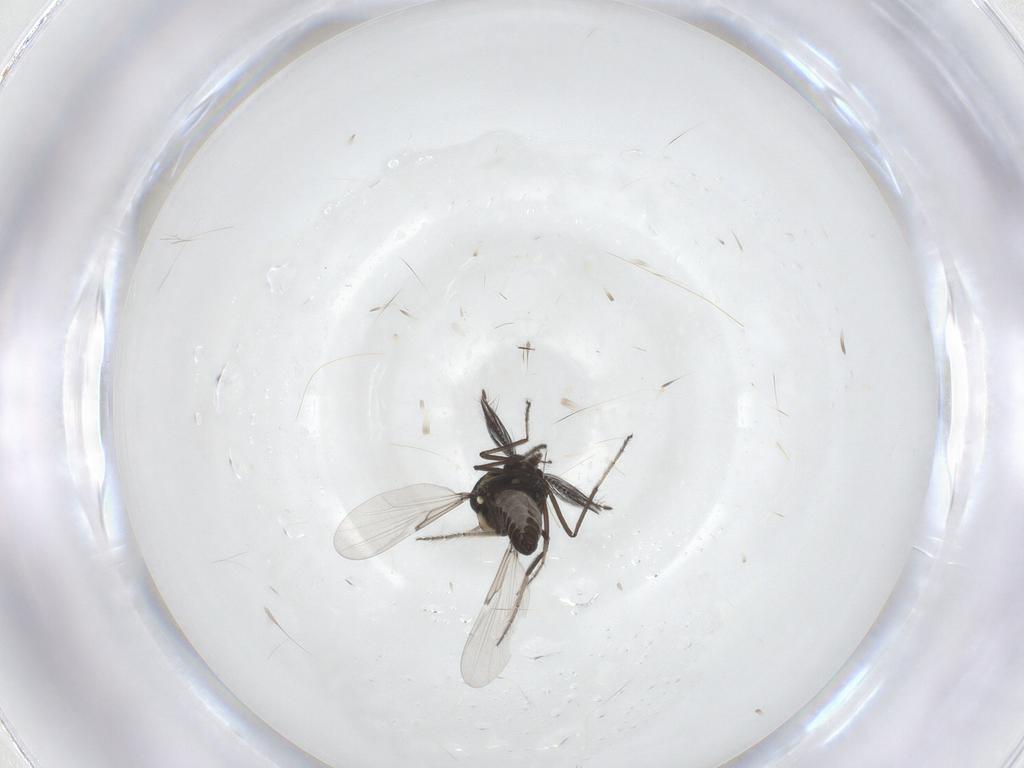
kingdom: Animalia
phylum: Arthropoda
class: Insecta
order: Diptera
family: Ceratopogonidae
